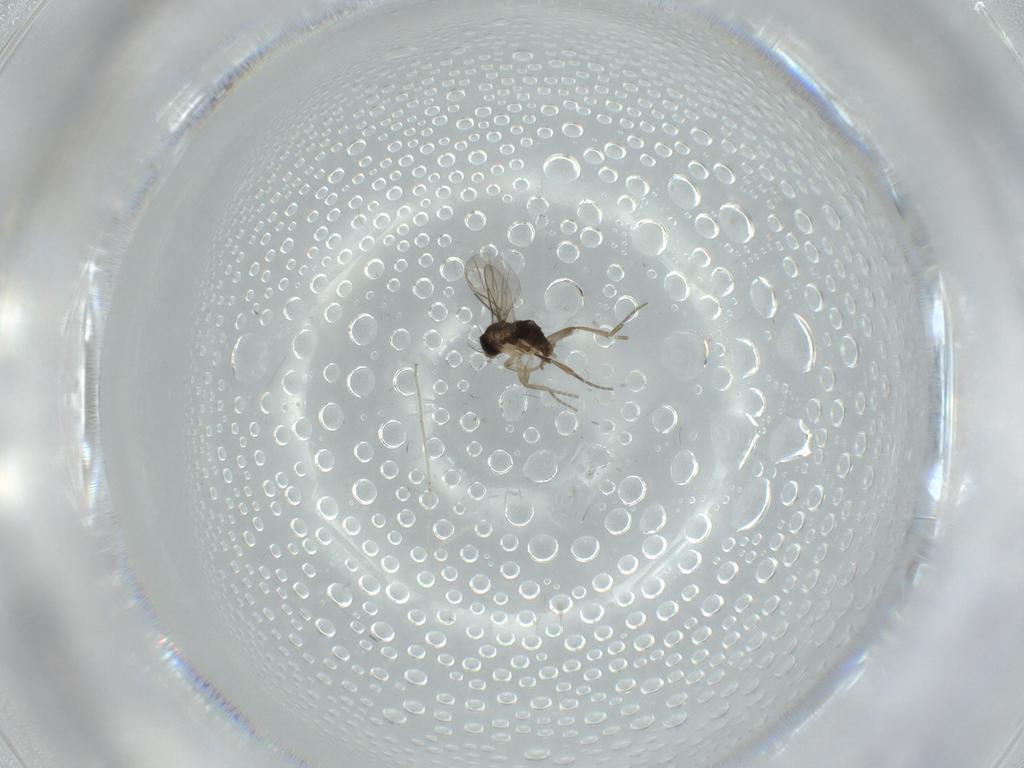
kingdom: Animalia
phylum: Arthropoda
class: Insecta
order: Diptera
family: Phoridae
